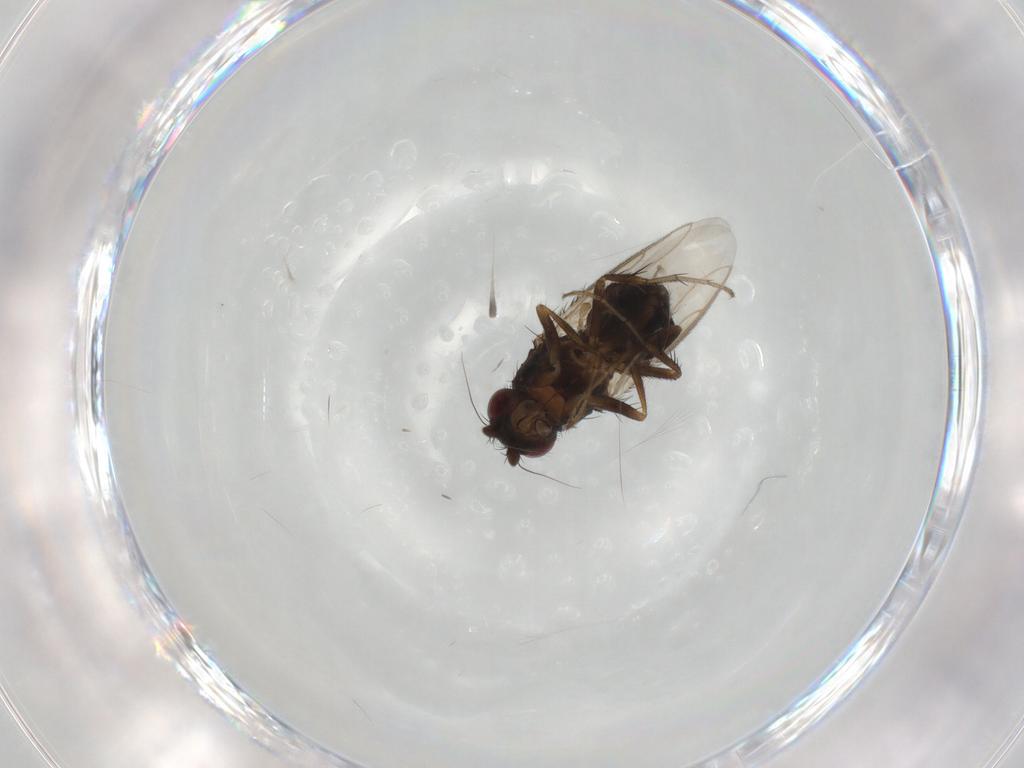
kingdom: Animalia
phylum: Arthropoda
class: Insecta
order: Diptera
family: Sphaeroceridae
